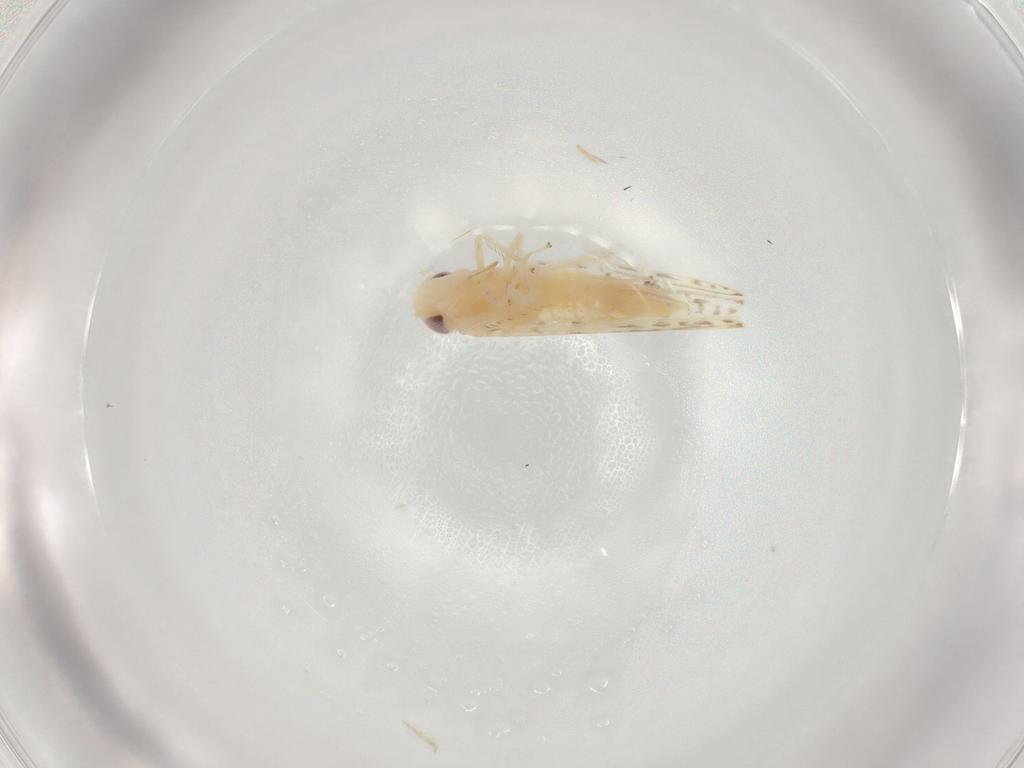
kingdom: Animalia
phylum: Arthropoda
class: Insecta
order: Hemiptera
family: Cicadellidae
